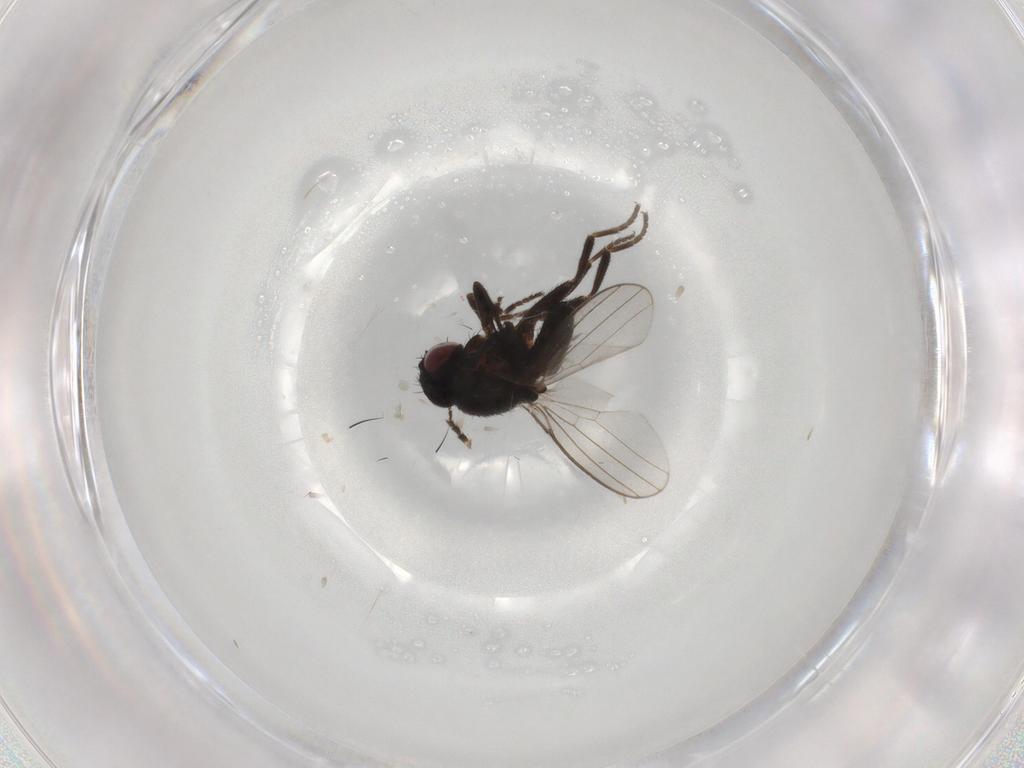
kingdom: Animalia
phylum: Arthropoda
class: Insecta
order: Diptera
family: Milichiidae
